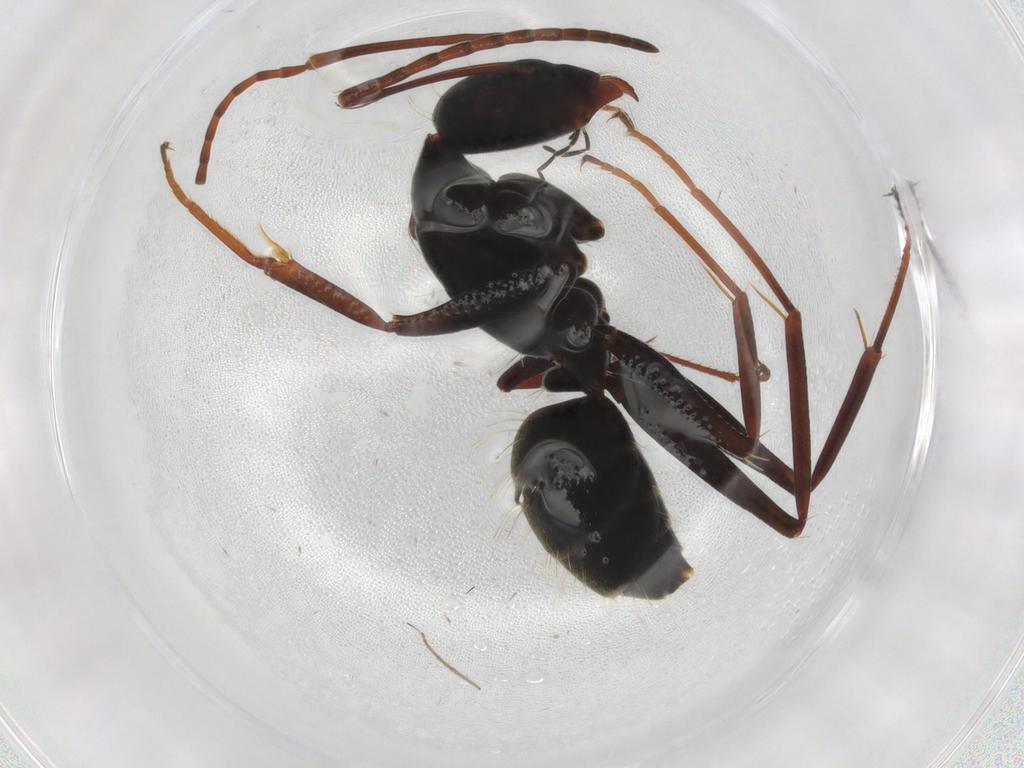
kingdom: Animalia
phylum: Arthropoda
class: Insecta
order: Hymenoptera
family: Formicidae
